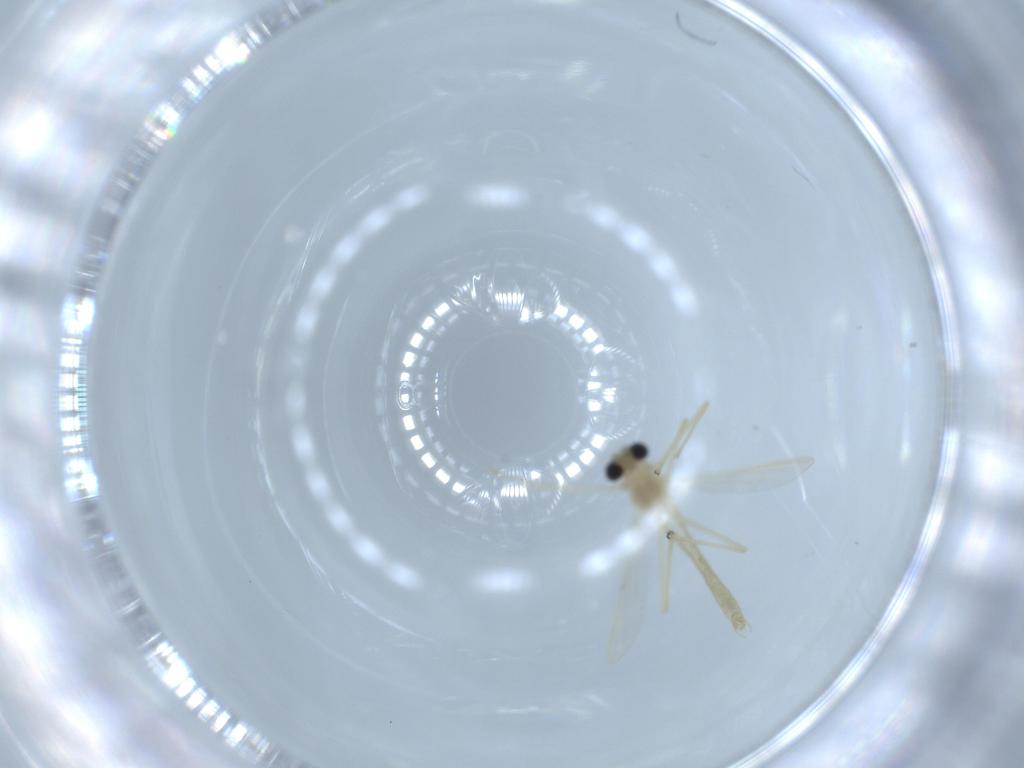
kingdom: Animalia
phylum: Arthropoda
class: Insecta
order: Diptera
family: Chironomidae
